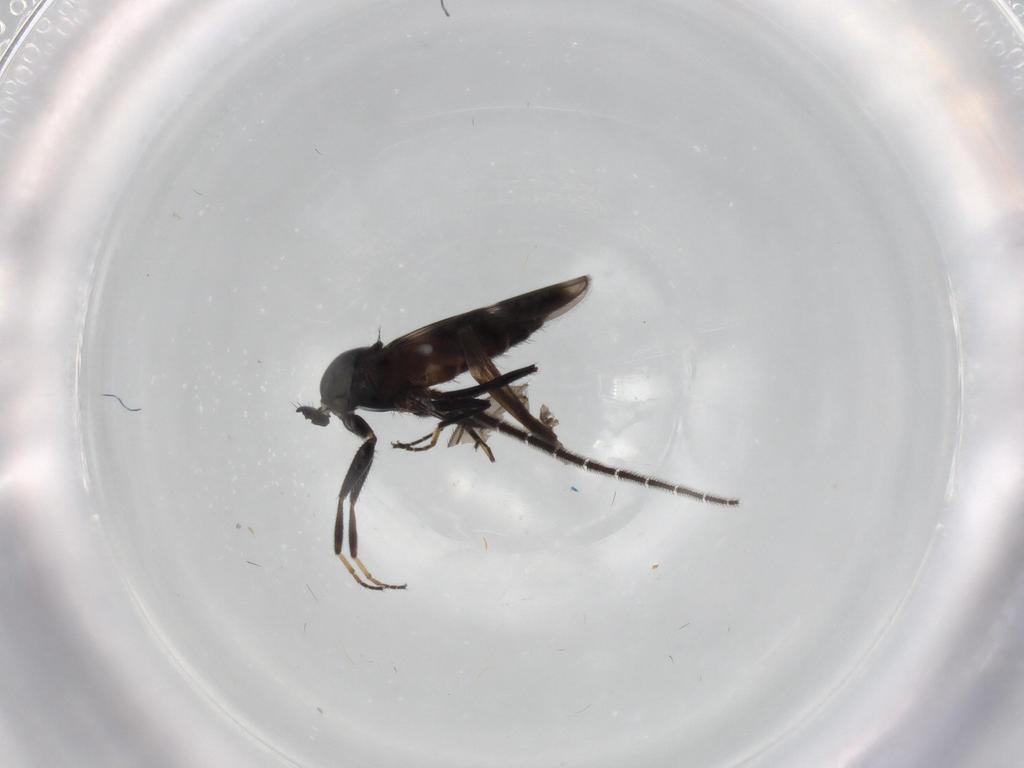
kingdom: Animalia
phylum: Arthropoda
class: Insecta
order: Diptera
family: Hybotidae
